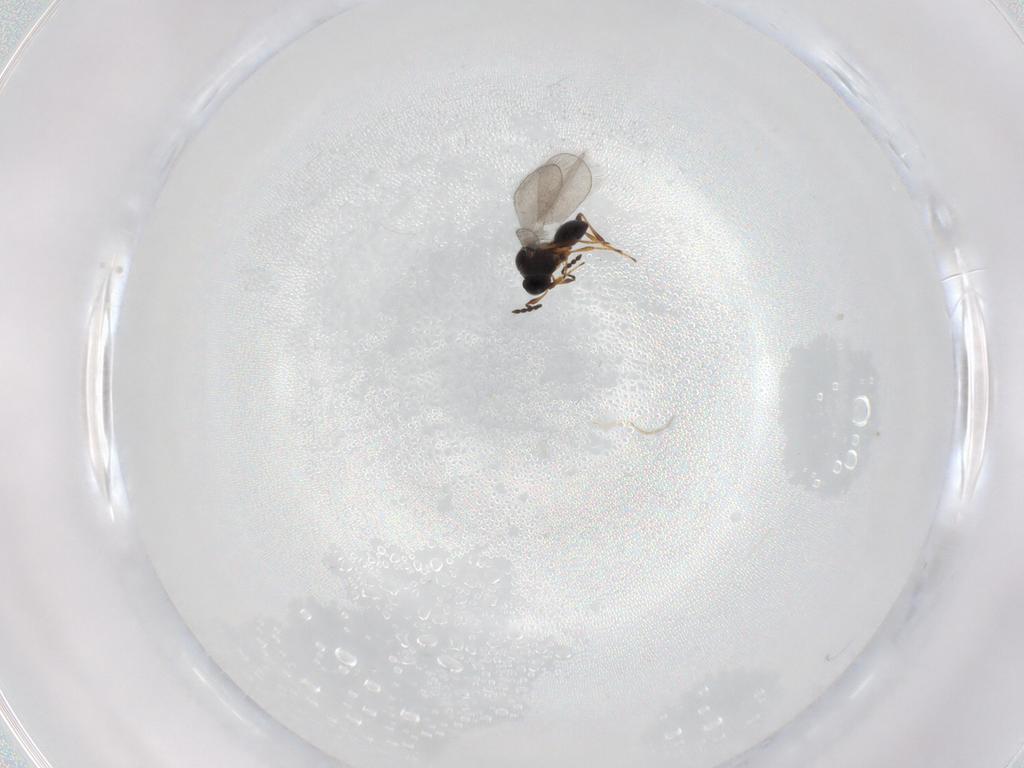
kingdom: Animalia
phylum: Arthropoda
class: Insecta
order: Hymenoptera
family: Platygastridae
